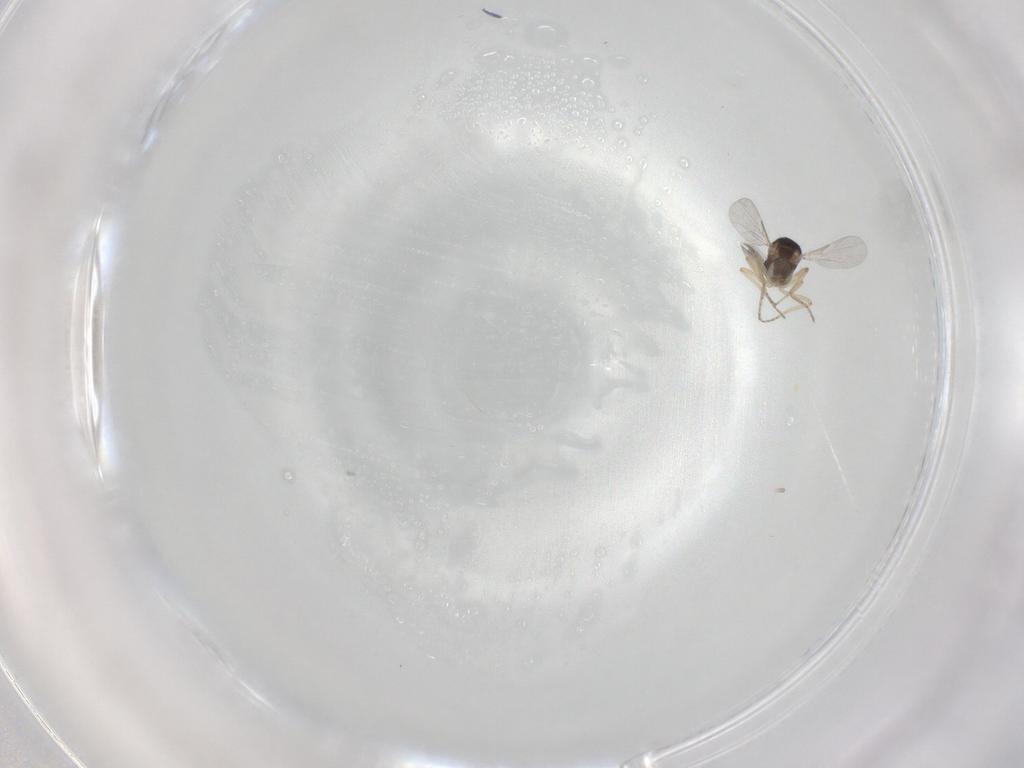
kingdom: Animalia
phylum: Arthropoda
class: Insecta
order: Diptera
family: Ceratopogonidae
